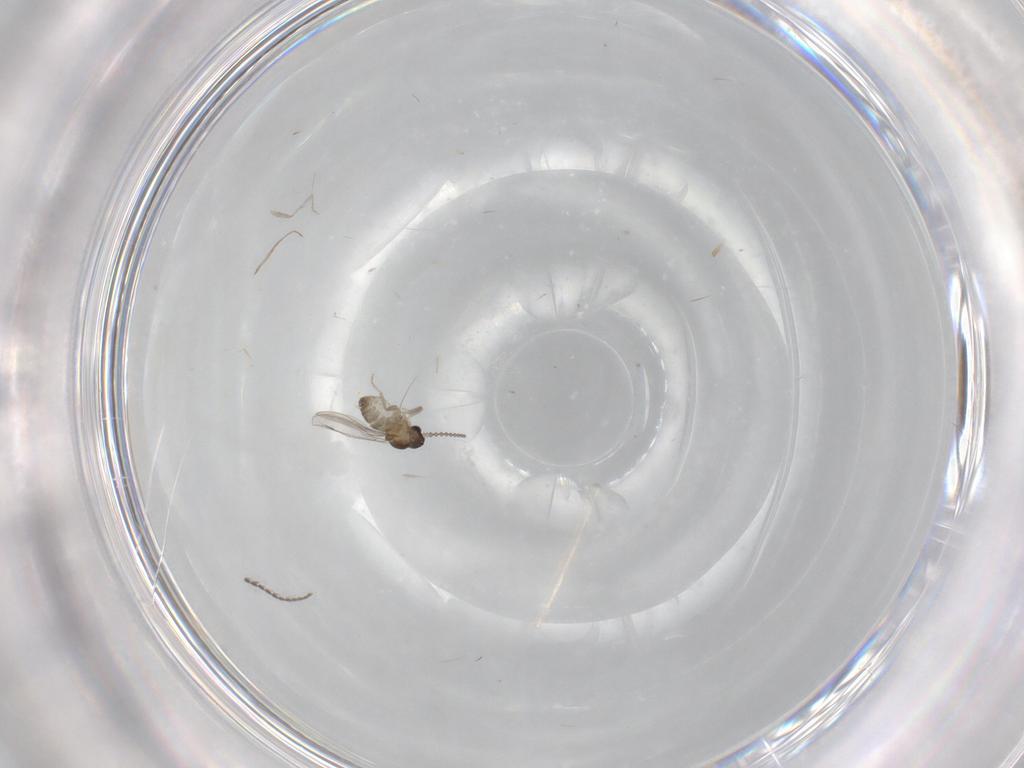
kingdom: Animalia
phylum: Arthropoda
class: Insecta
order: Diptera
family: Cecidomyiidae
